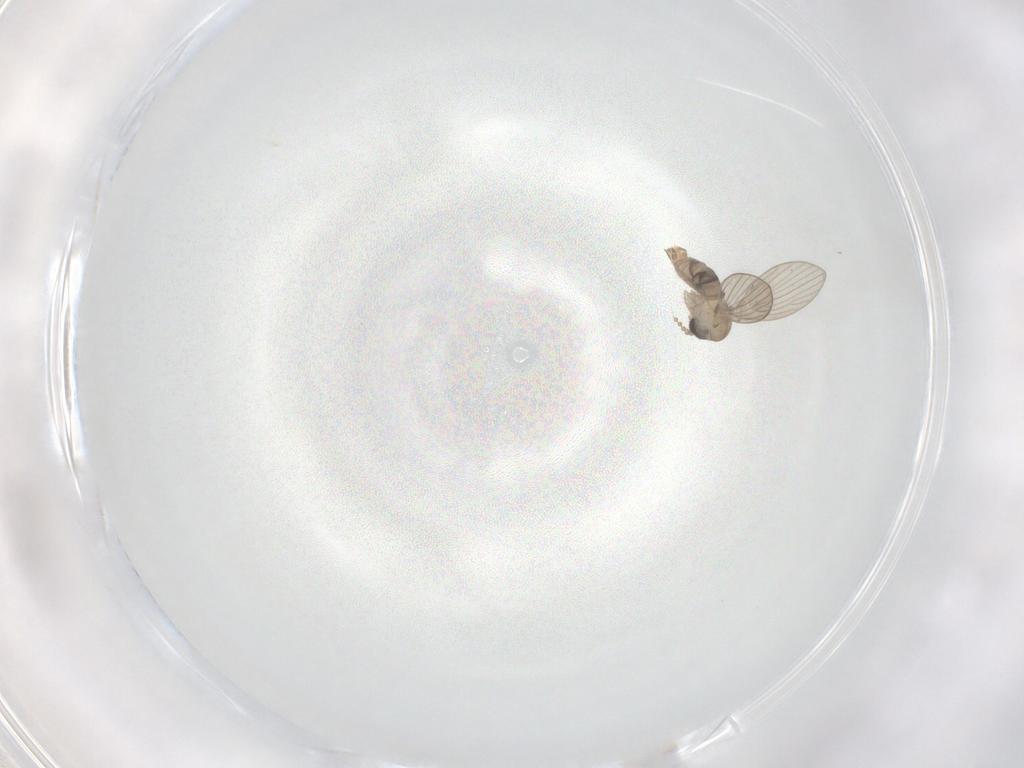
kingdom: Animalia
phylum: Arthropoda
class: Insecta
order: Diptera
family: Psychodidae
